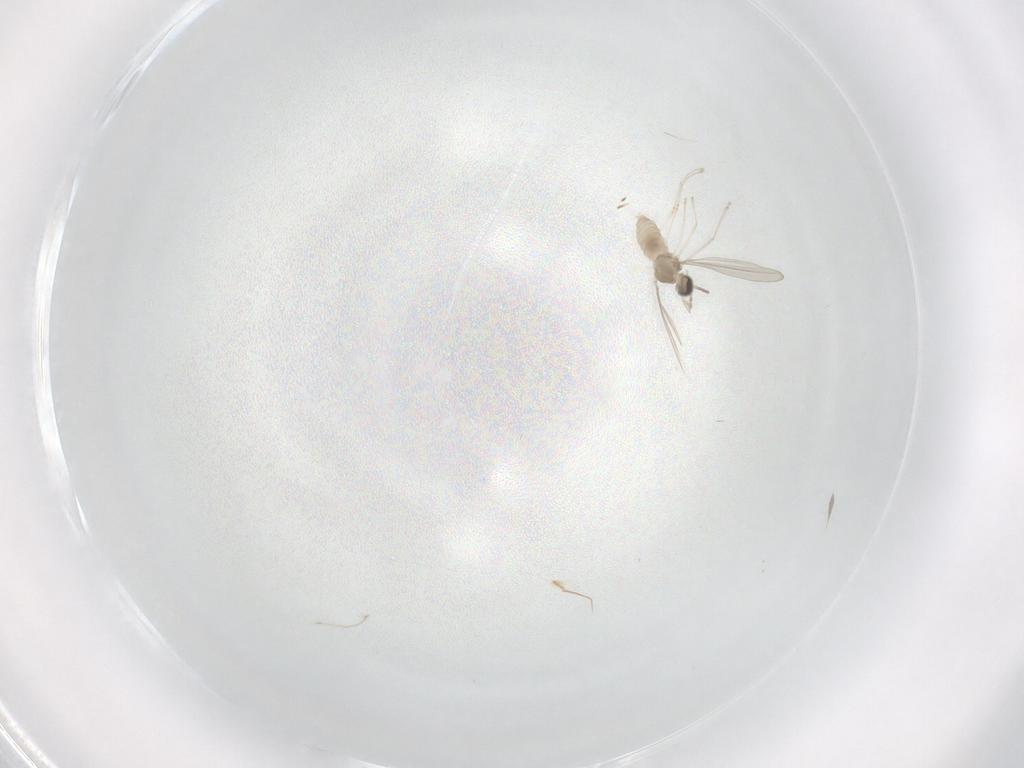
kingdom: Animalia
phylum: Arthropoda
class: Insecta
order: Diptera
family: Cecidomyiidae
